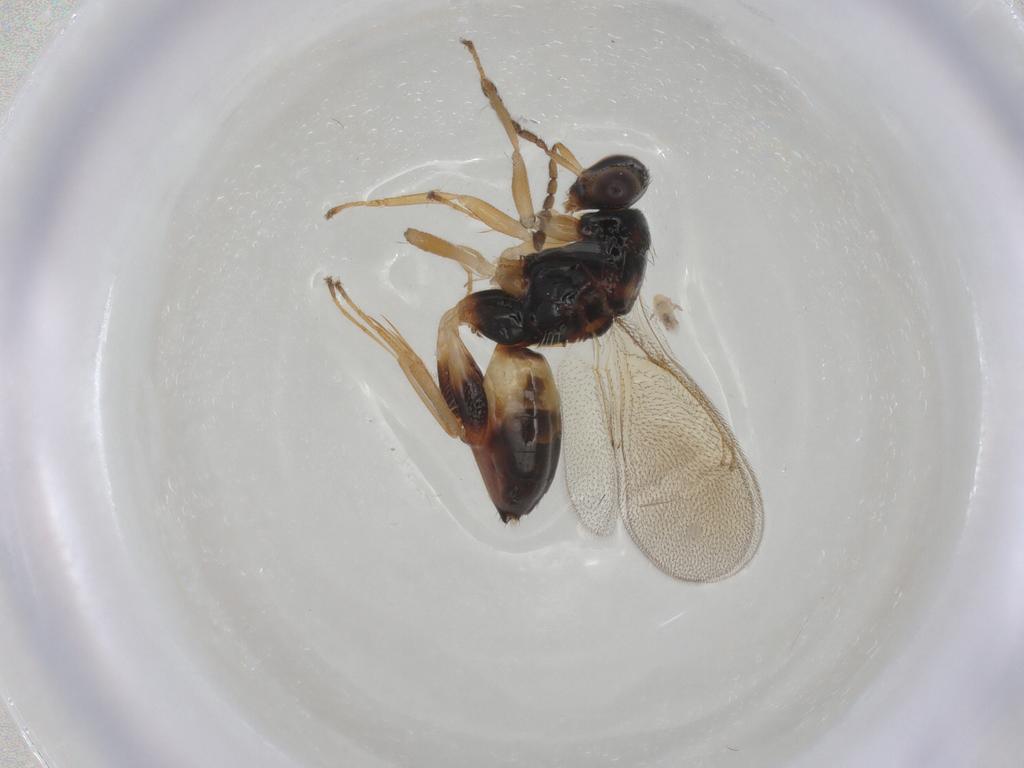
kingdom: Animalia
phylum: Arthropoda
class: Insecta
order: Hymenoptera
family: Eulophidae
